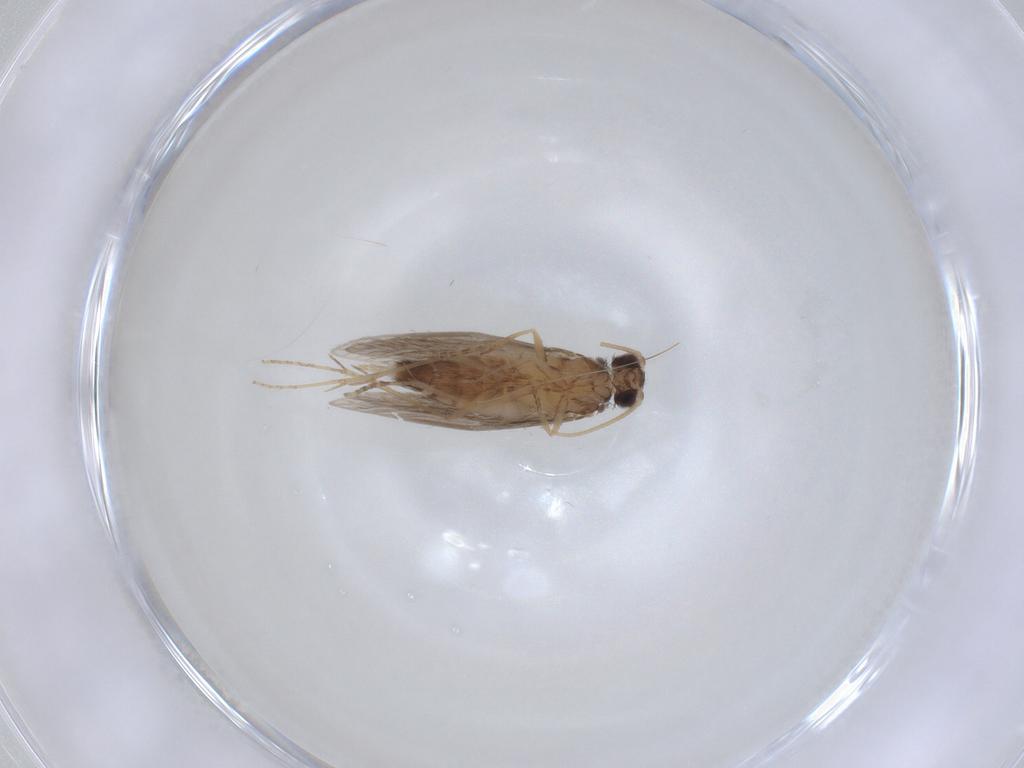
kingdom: Animalia
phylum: Arthropoda
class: Insecta
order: Trichoptera
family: Hydroptilidae
